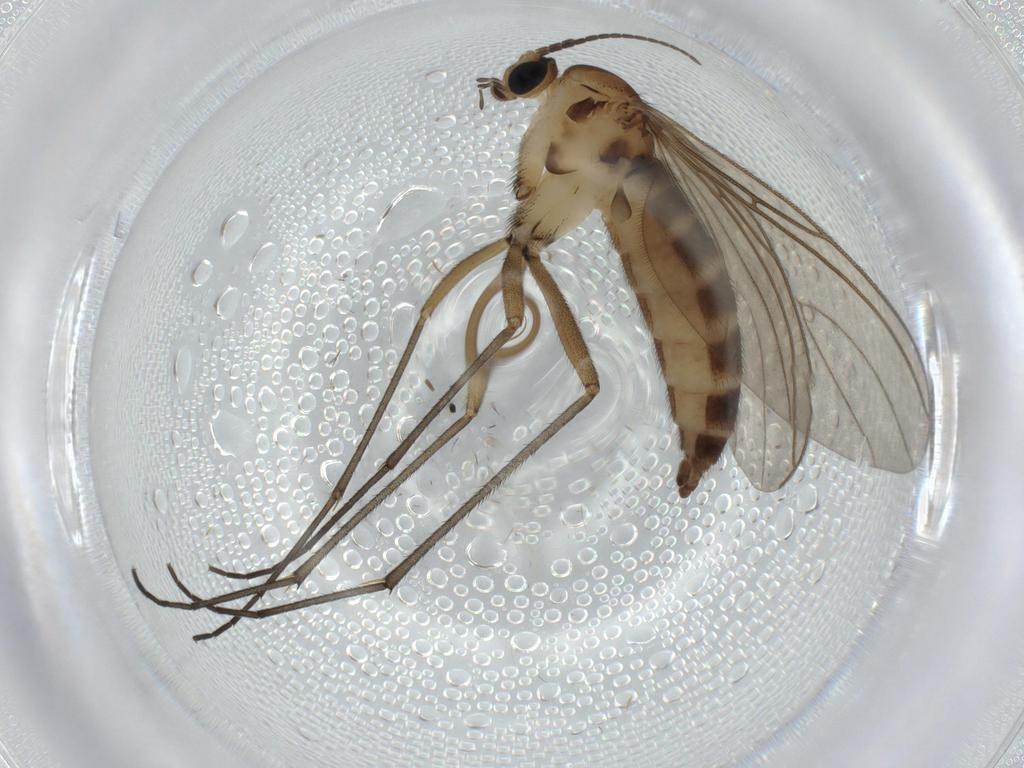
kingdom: Animalia
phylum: Arthropoda
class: Insecta
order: Diptera
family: Sciaridae
